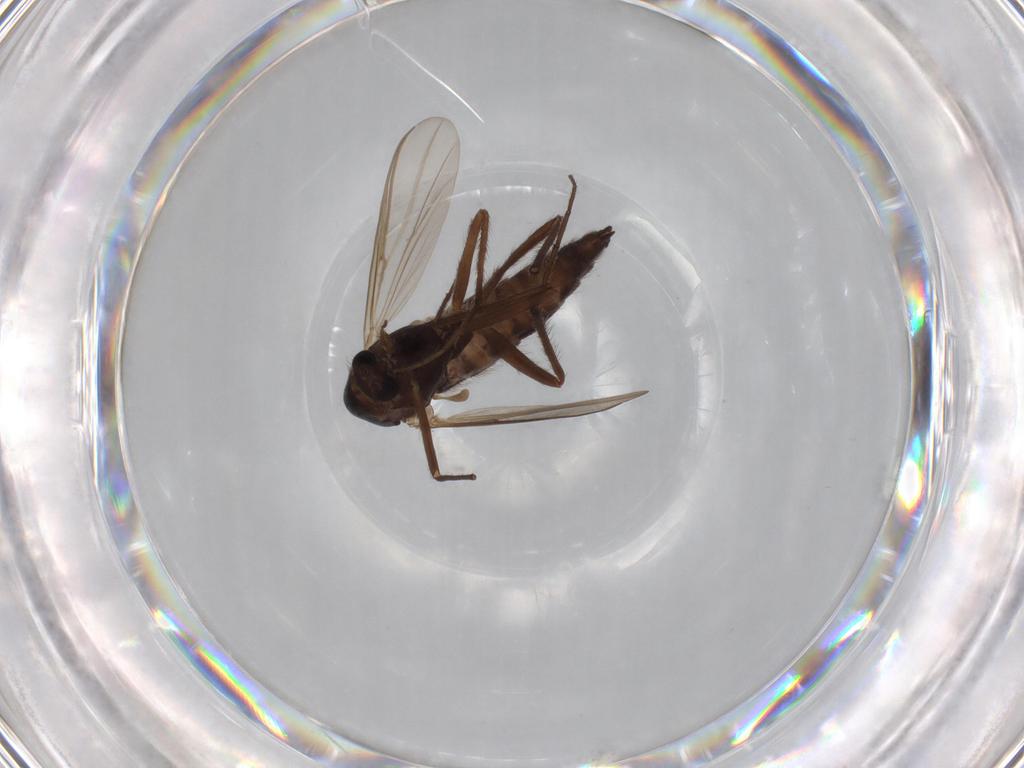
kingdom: Animalia
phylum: Arthropoda
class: Insecta
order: Diptera
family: Chironomidae
